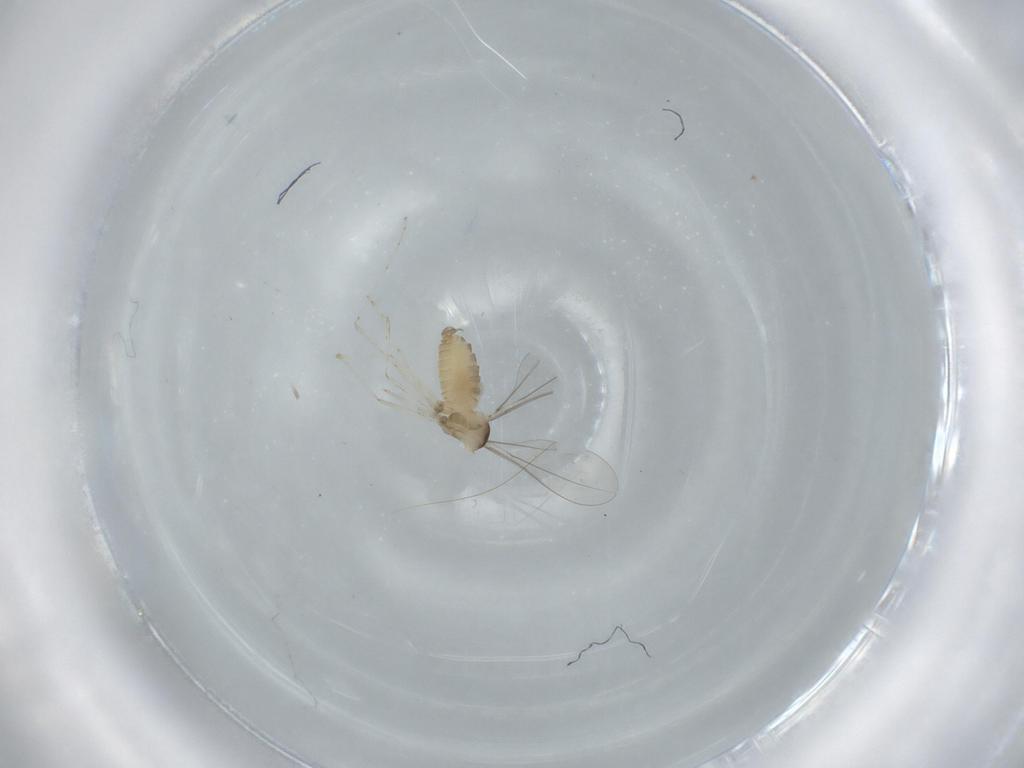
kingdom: Animalia
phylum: Arthropoda
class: Insecta
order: Diptera
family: Cecidomyiidae
